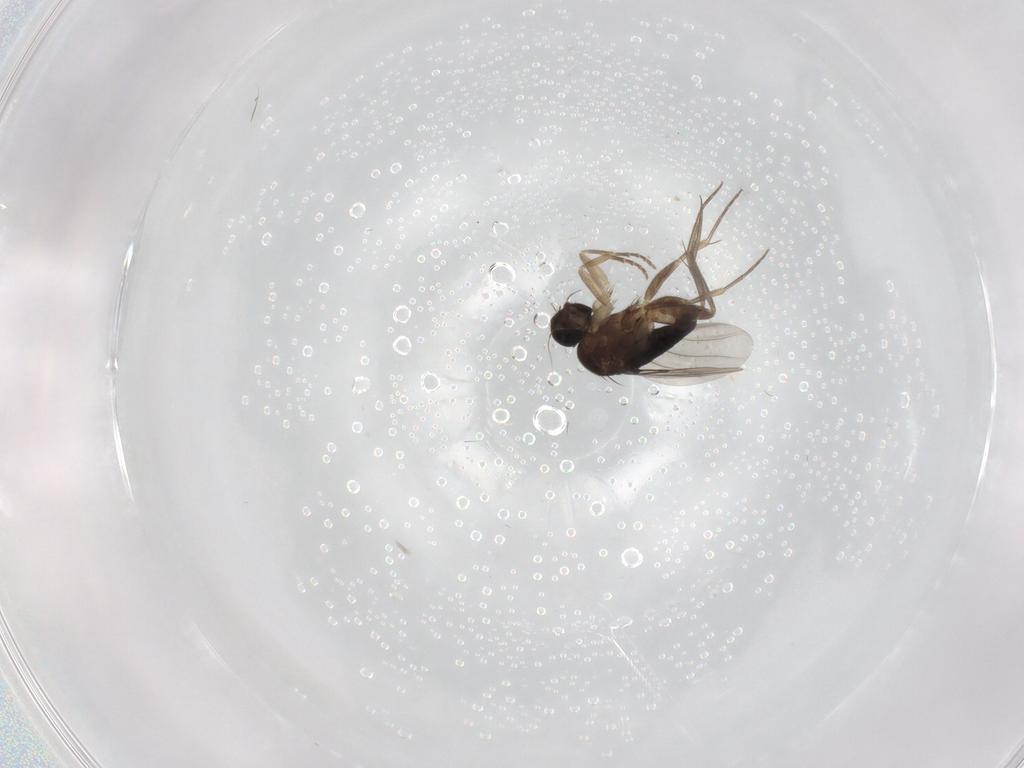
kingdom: Animalia
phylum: Arthropoda
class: Insecta
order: Diptera
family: Phoridae
